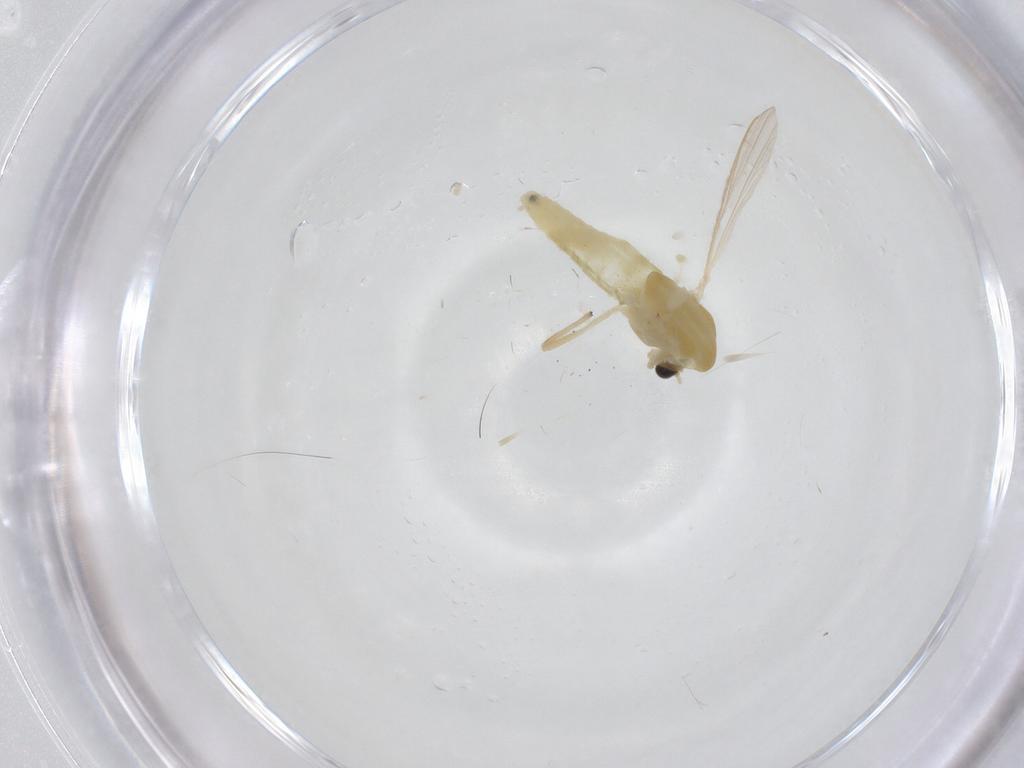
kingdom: Animalia
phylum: Arthropoda
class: Insecta
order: Diptera
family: Chironomidae
